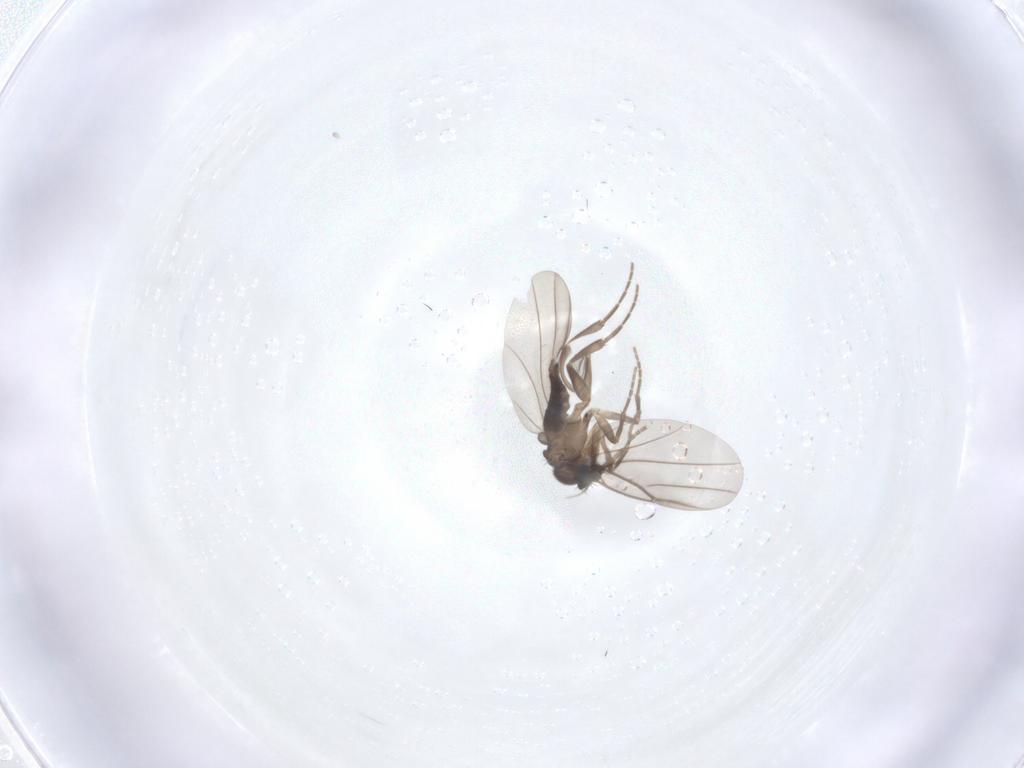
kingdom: Animalia
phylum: Arthropoda
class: Insecta
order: Diptera
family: Phoridae
